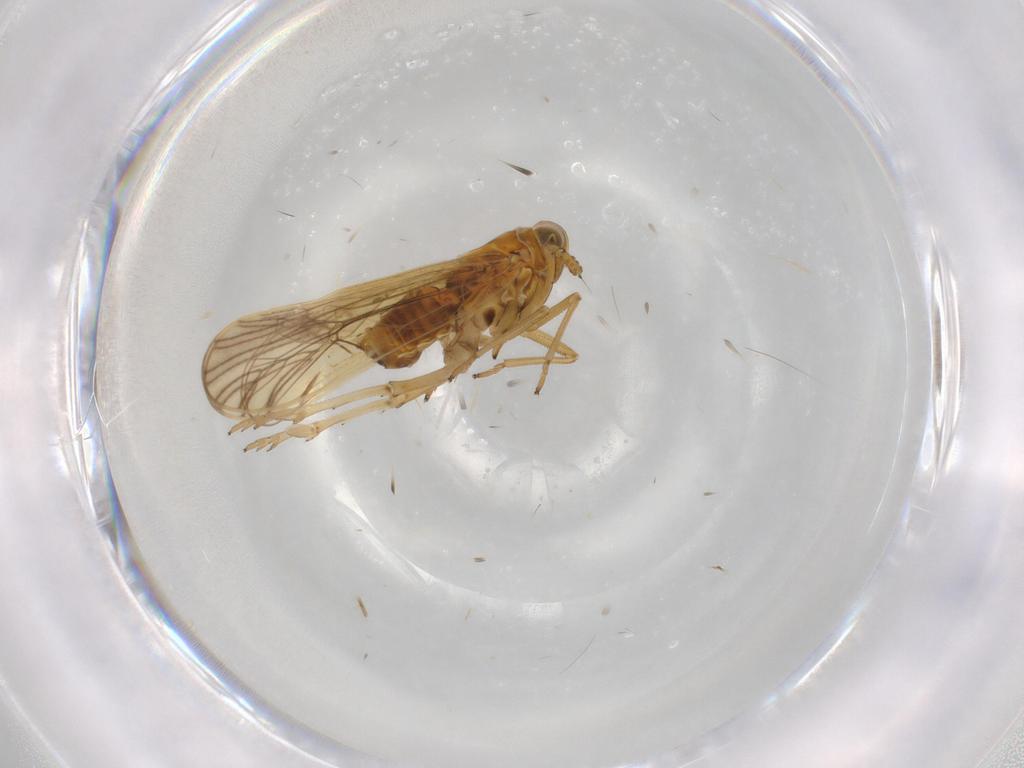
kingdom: Animalia
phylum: Arthropoda
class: Insecta
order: Hemiptera
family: Delphacidae
